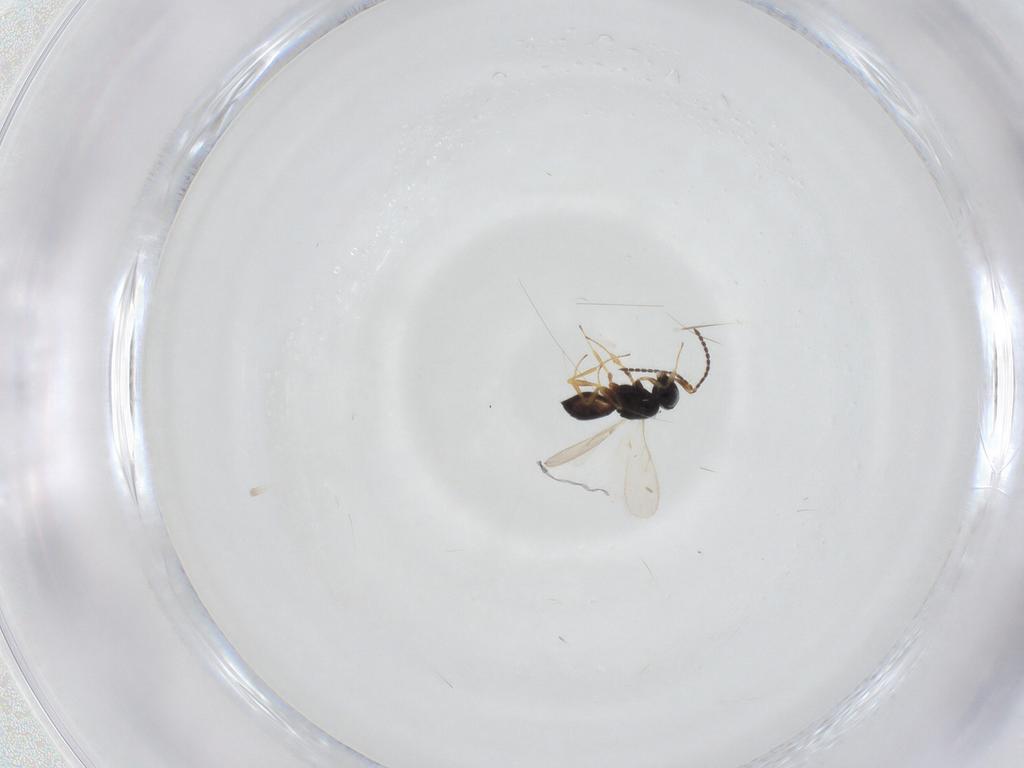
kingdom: Animalia
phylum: Arthropoda
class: Insecta
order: Hymenoptera
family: Scelionidae
